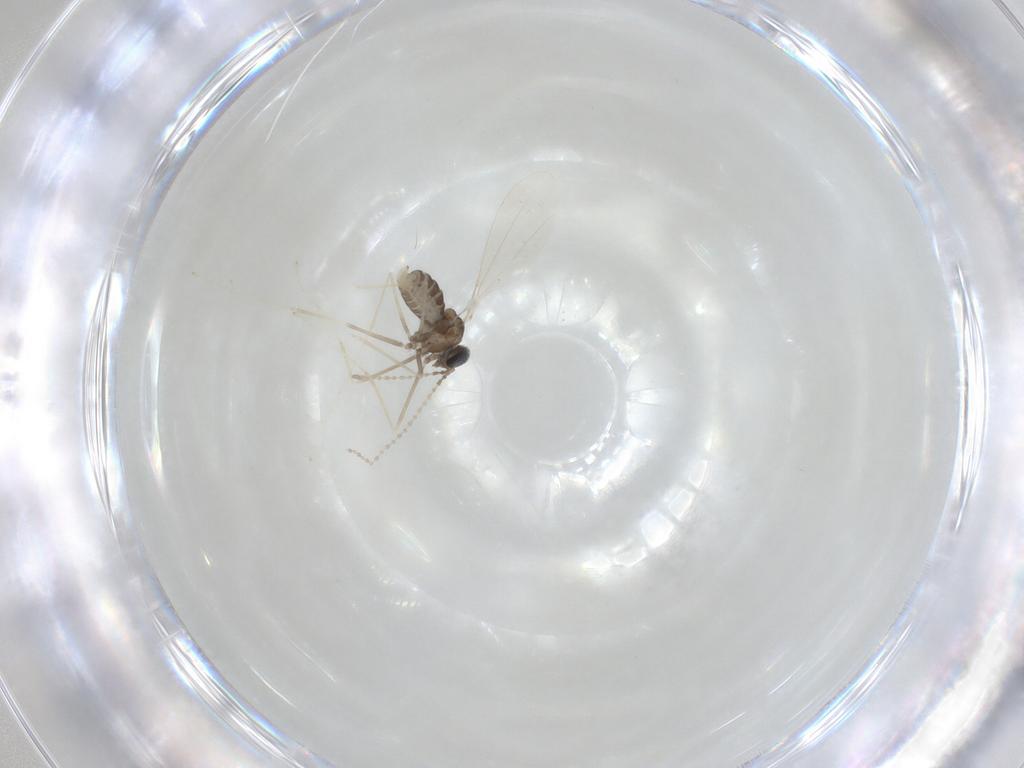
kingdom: Animalia
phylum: Arthropoda
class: Insecta
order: Diptera
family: Cecidomyiidae
